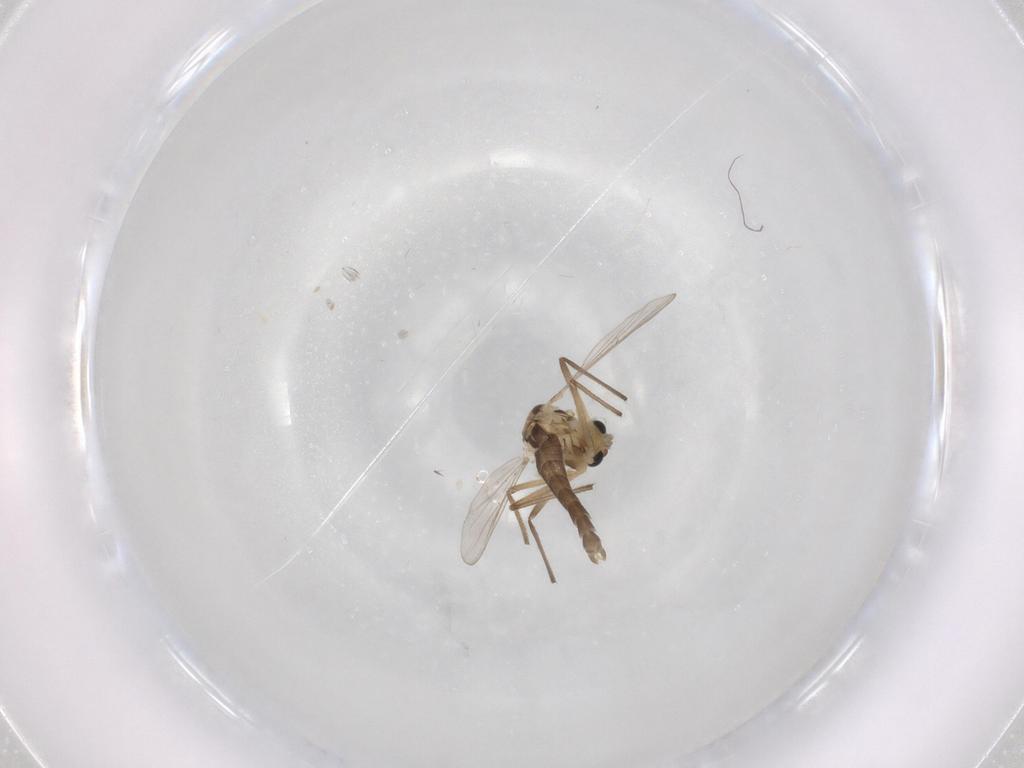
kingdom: Animalia
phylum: Arthropoda
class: Insecta
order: Diptera
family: Chironomidae
